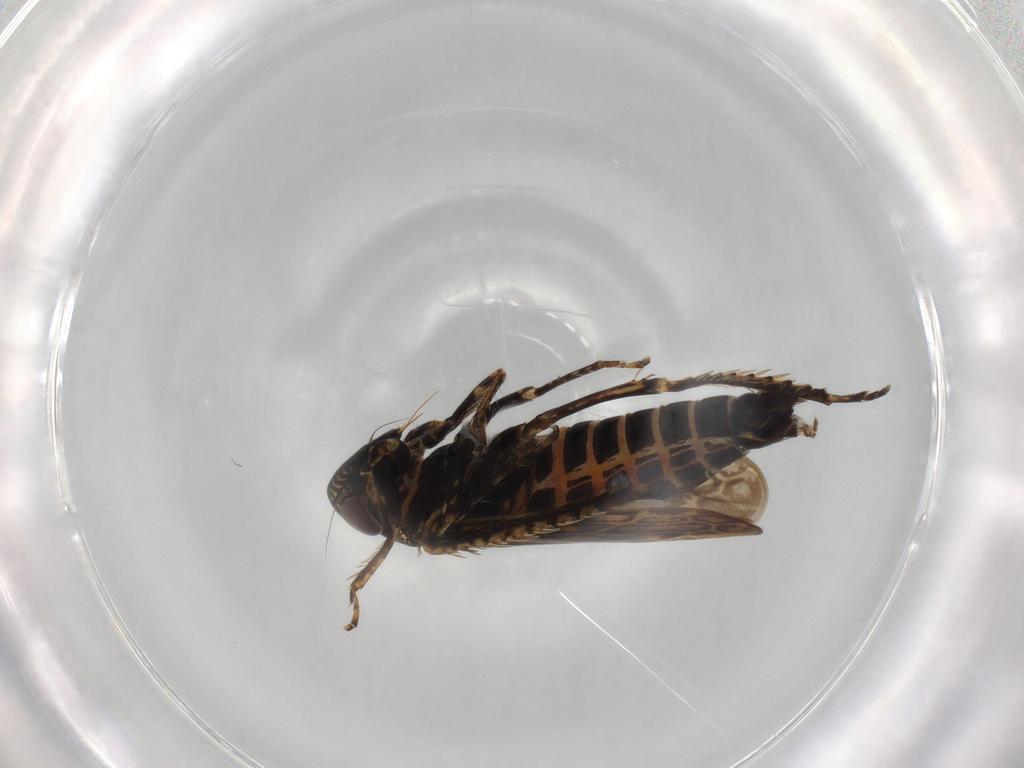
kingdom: Animalia
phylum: Arthropoda
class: Insecta
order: Hemiptera
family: Cicadellidae
